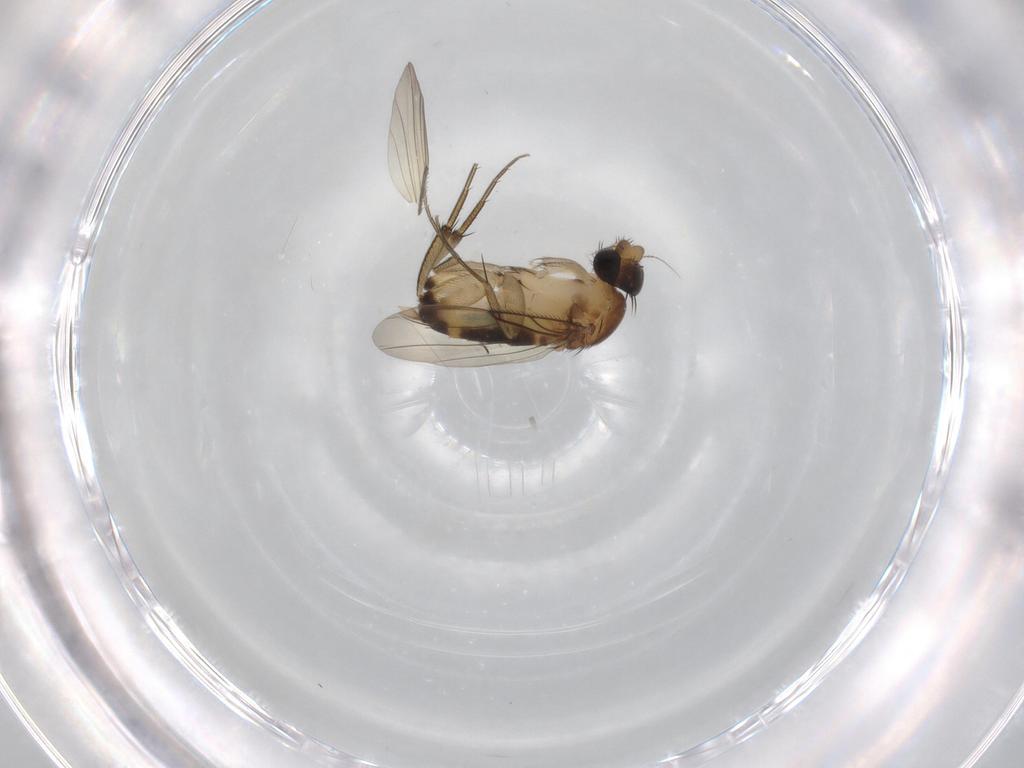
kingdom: Animalia
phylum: Arthropoda
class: Insecta
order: Diptera
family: Phoridae
